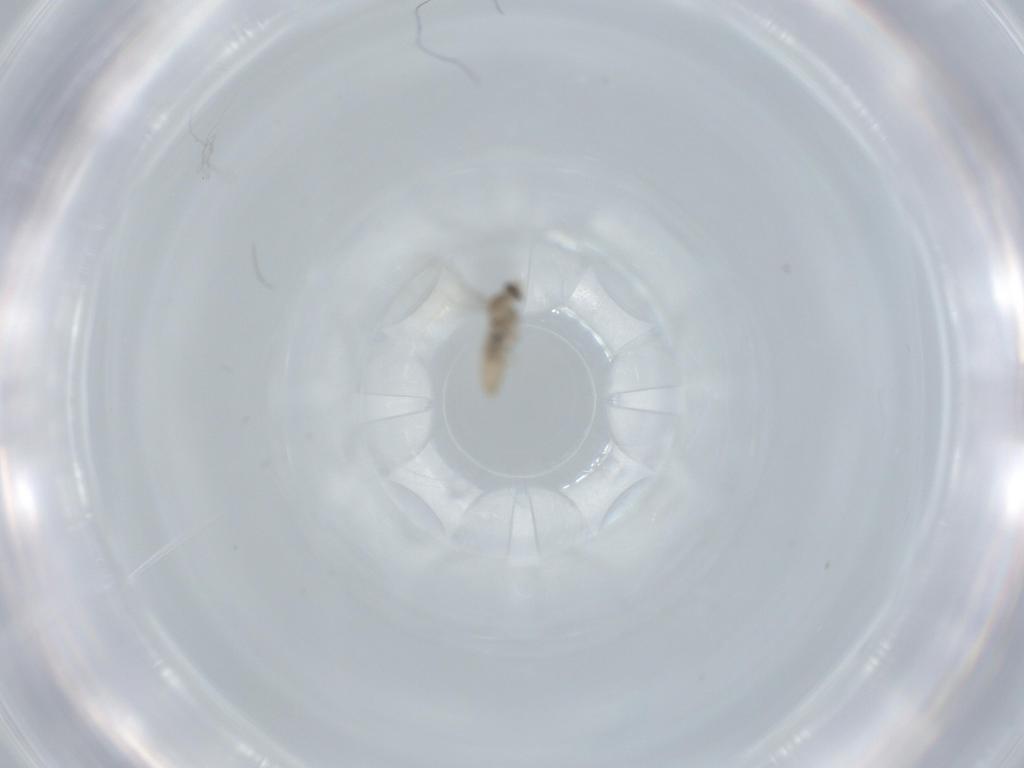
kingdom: Animalia
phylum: Arthropoda
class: Insecta
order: Diptera
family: Cecidomyiidae
